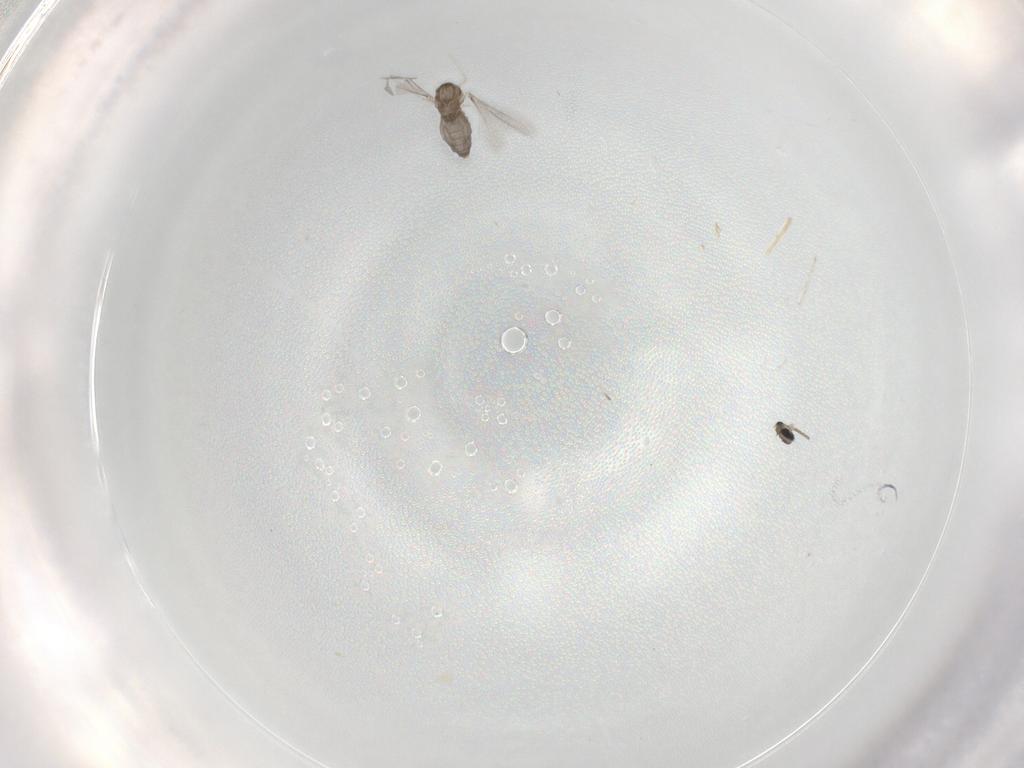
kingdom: Animalia
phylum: Arthropoda
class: Insecta
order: Diptera
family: Cecidomyiidae
